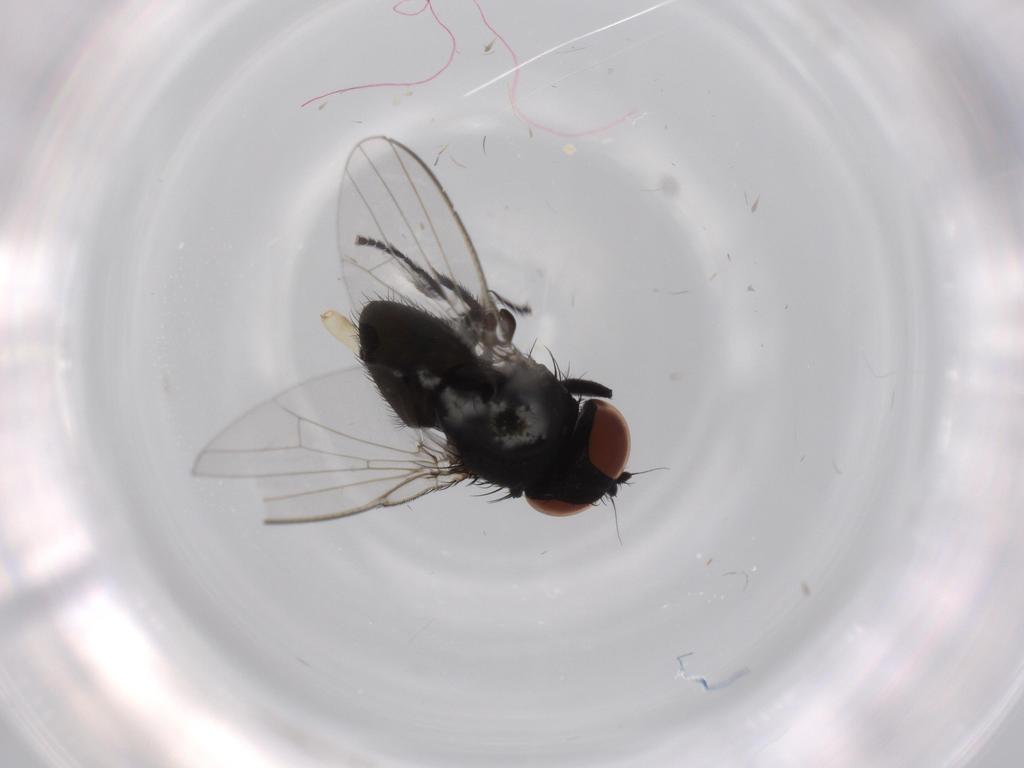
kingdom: Animalia
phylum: Arthropoda
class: Insecta
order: Diptera
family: Milichiidae
